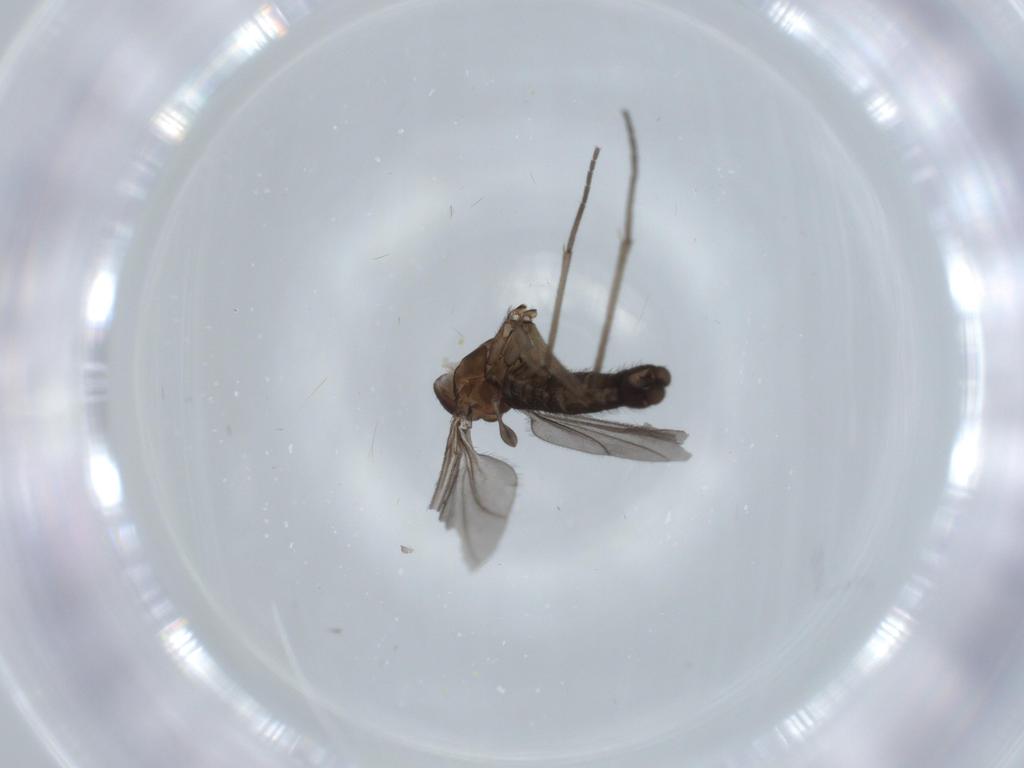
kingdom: Animalia
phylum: Arthropoda
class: Insecta
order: Diptera
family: Sciaridae
